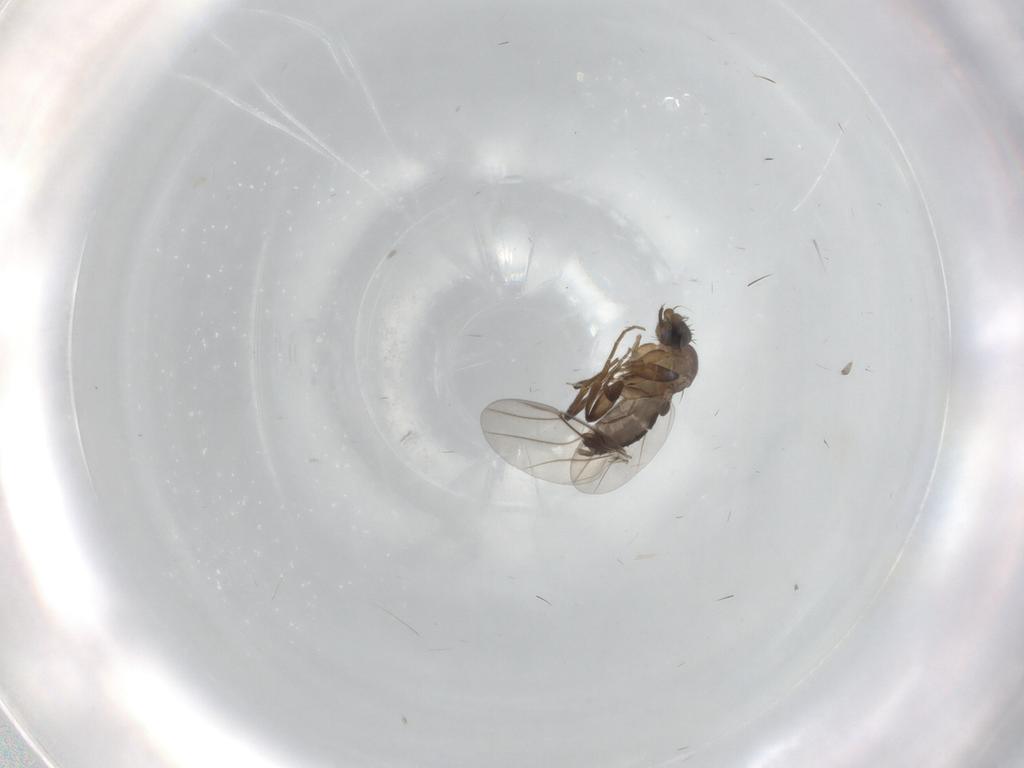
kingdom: Animalia
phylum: Arthropoda
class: Insecta
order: Diptera
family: Chironomidae
